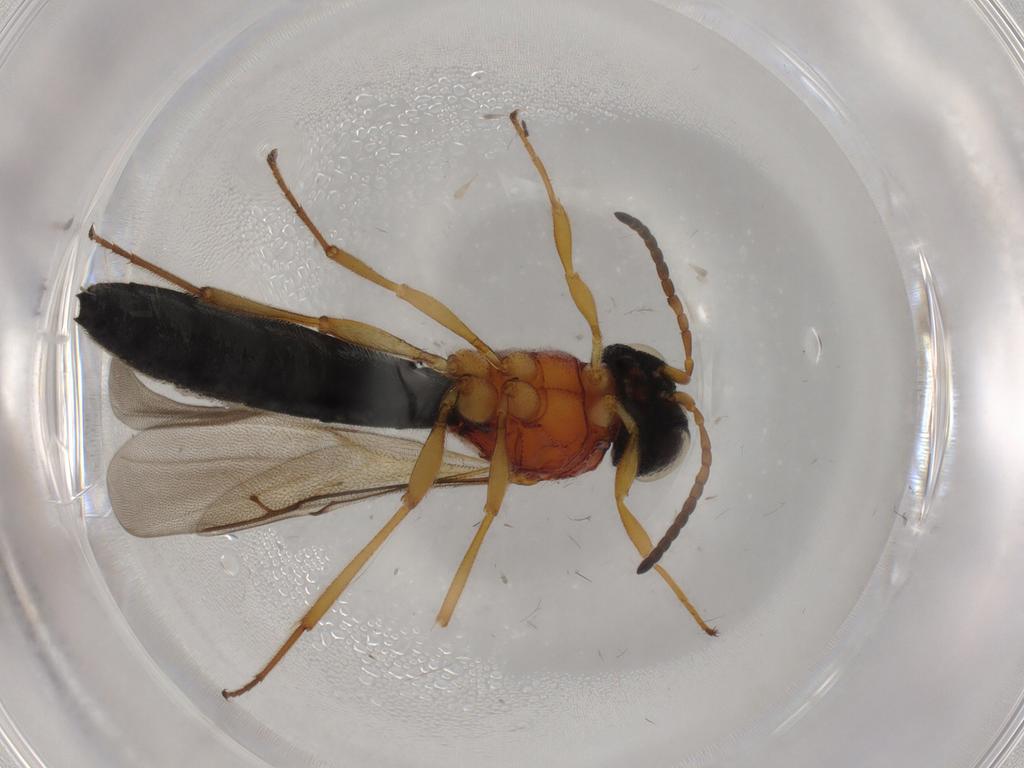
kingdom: Animalia
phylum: Arthropoda
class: Insecta
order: Hymenoptera
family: Scelionidae
